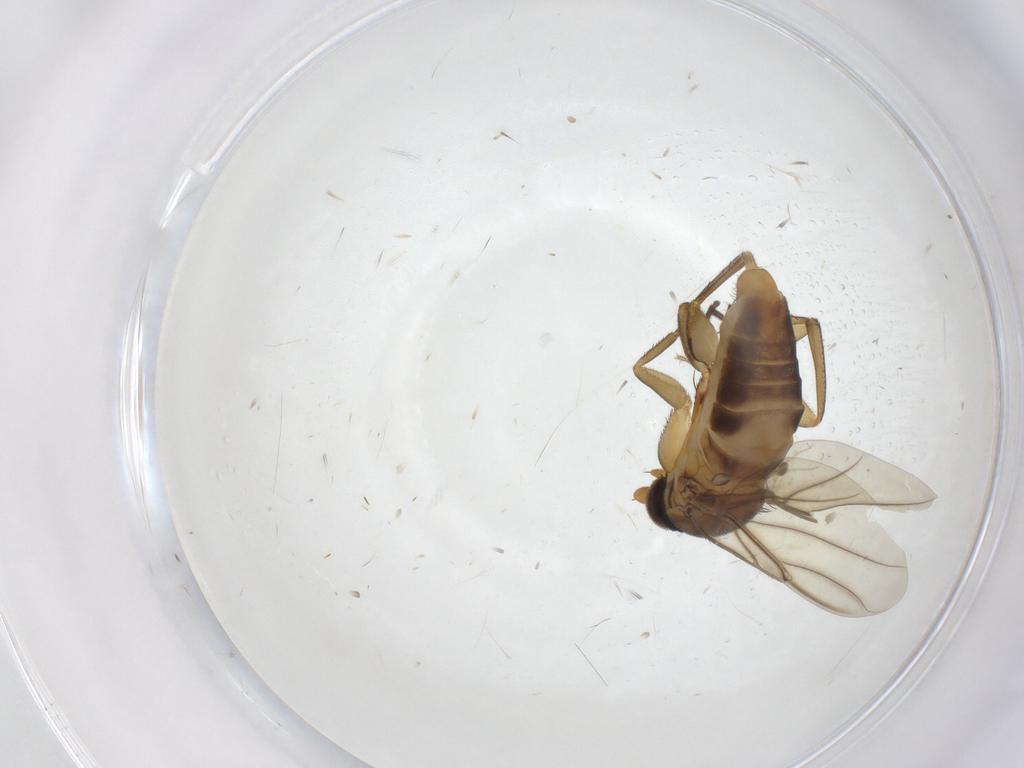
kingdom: Animalia
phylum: Arthropoda
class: Insecta
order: Diptera
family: Phoridae
